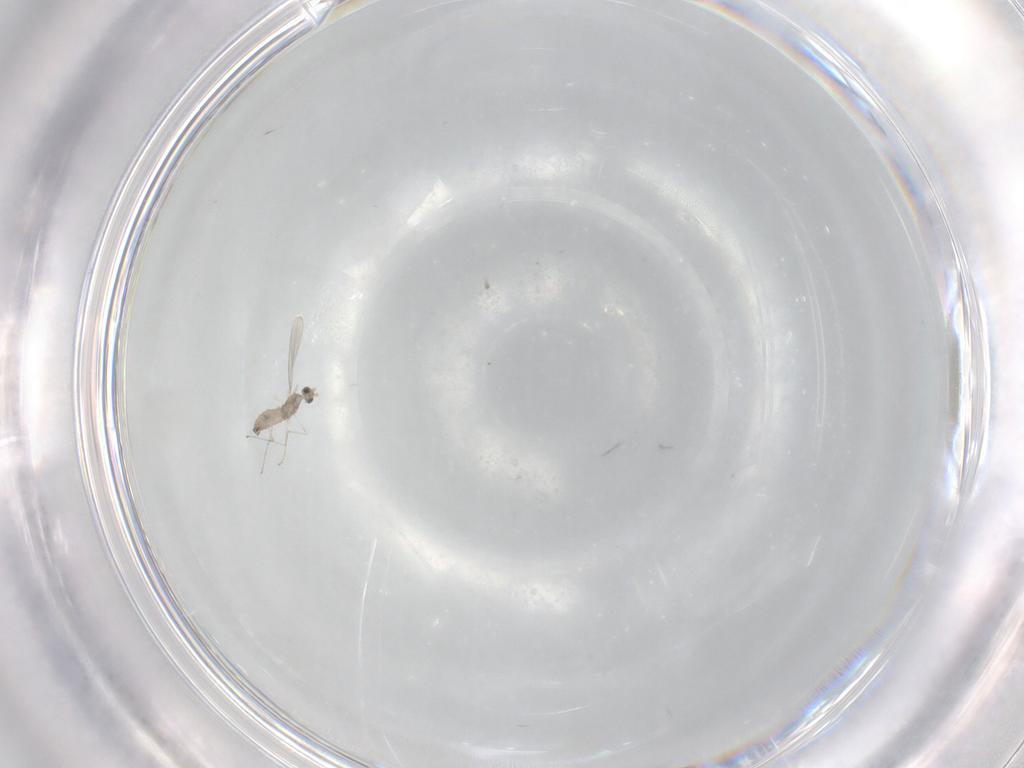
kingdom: Animalia
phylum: Arthropoda
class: Insecta
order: Diptera
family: Cecidomyiidae
